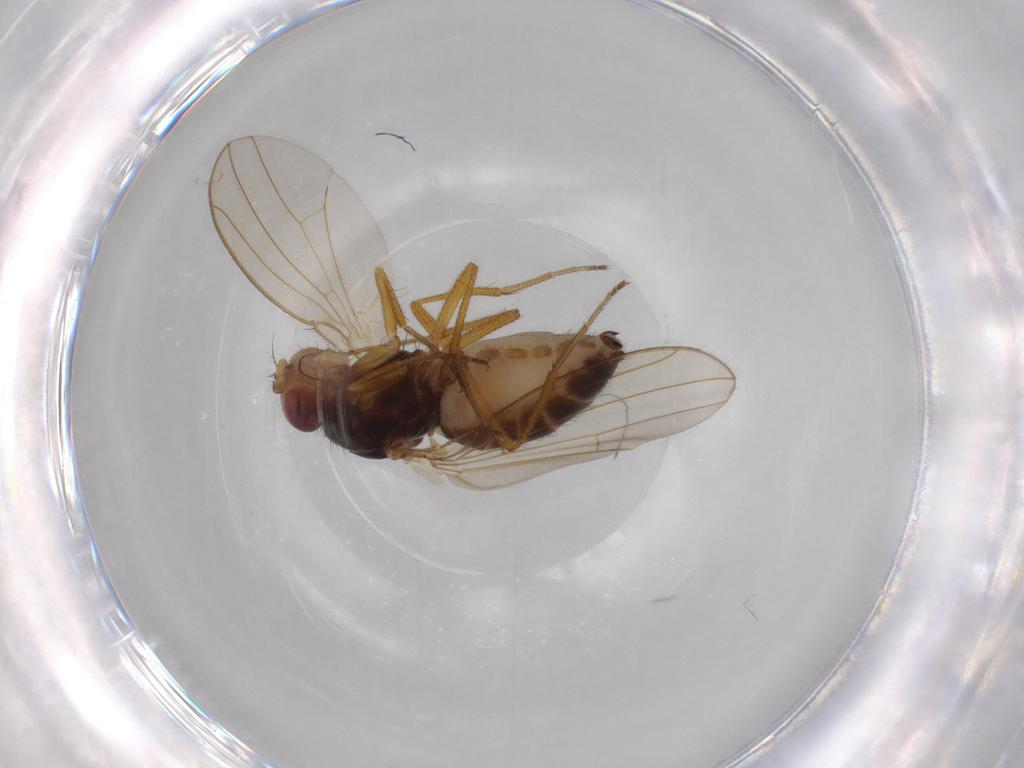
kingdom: Animalia
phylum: Arthropoda
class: Insecta
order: Diptera
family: Drosophilidae
